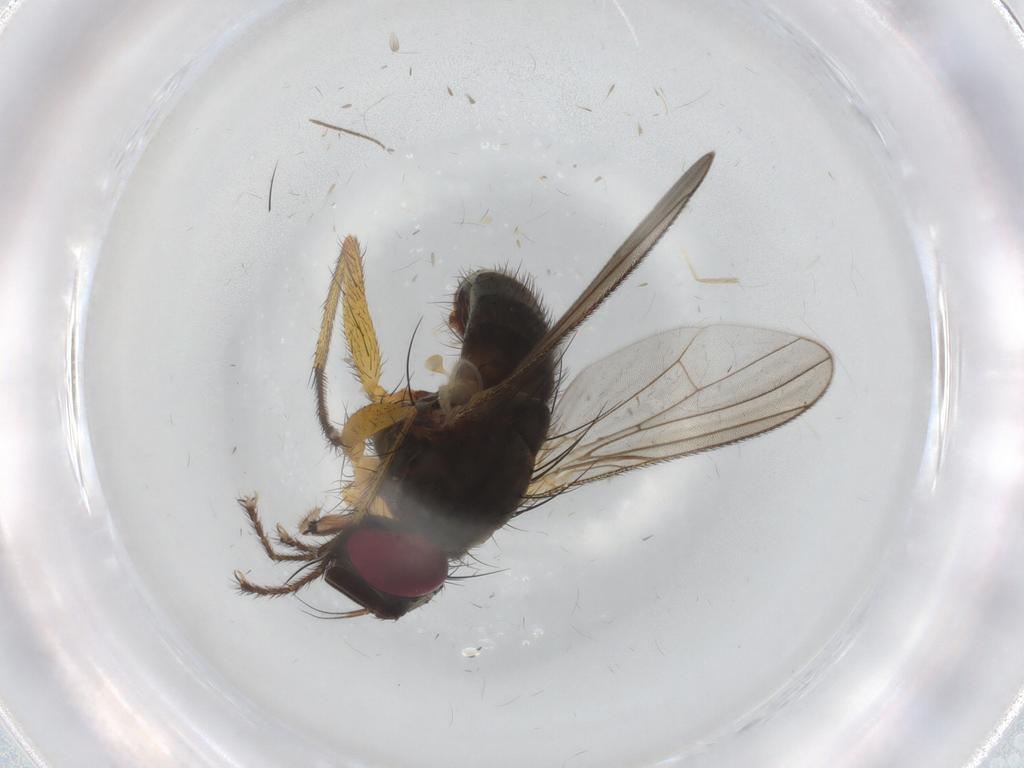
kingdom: Animalia
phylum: Arthropoda
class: Insecta
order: Diptera
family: Muscidae
